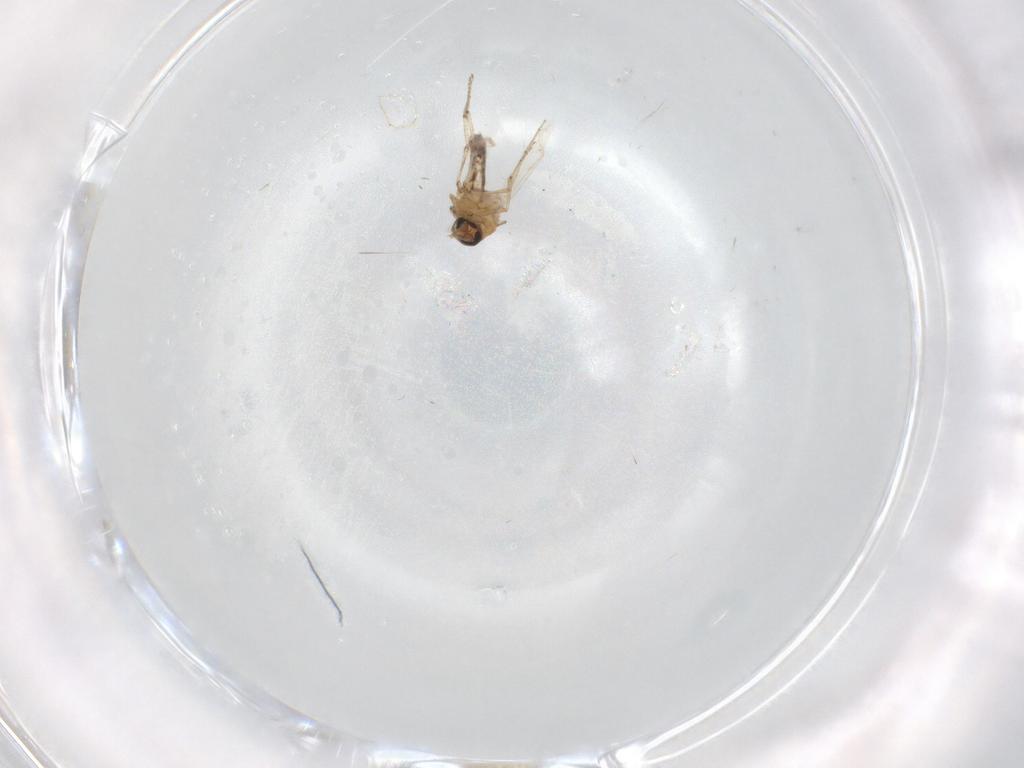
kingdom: Animalia
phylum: Arthropoda
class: Insecta
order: Diptera
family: Ceratopogonidae
